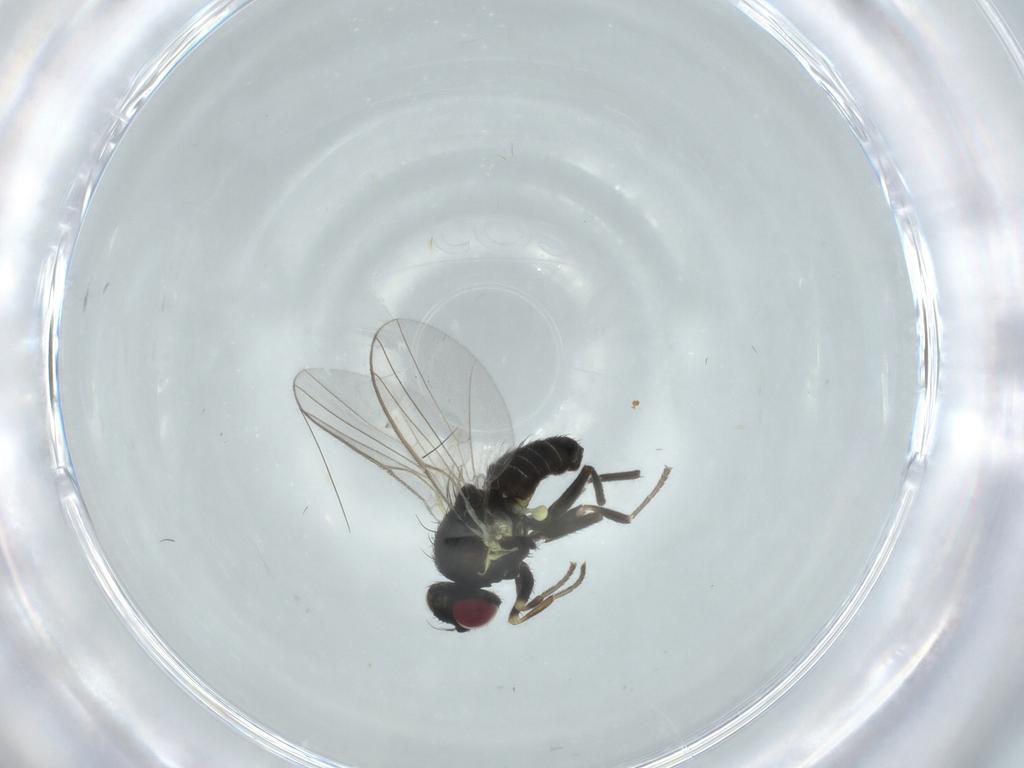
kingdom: Animalia
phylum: Arthropoda
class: Insecta
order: Diptera
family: Agromyzidae
